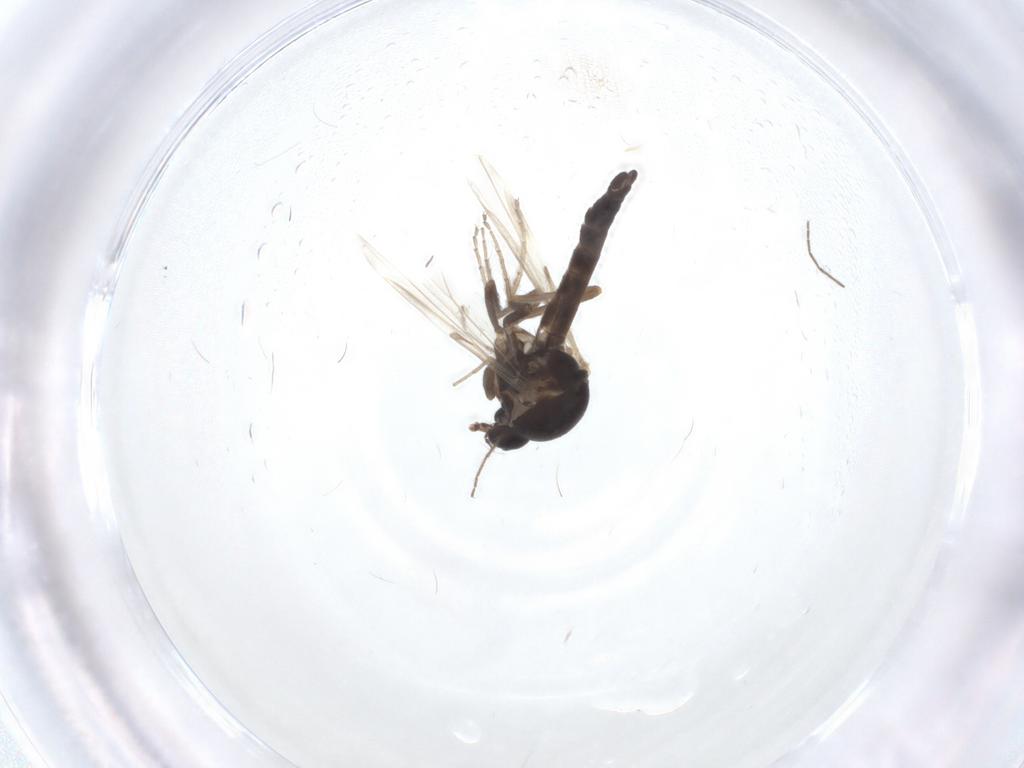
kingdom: Animalia
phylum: Arthropoda
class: Insecta
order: Diptera
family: Ceratopogonidae
